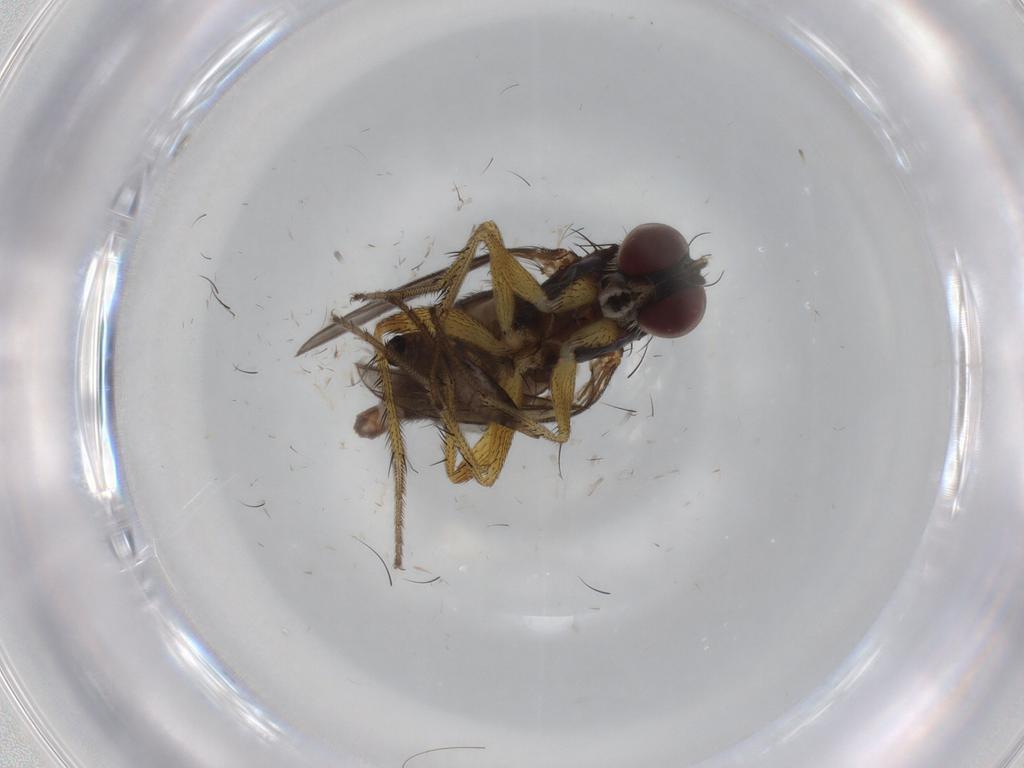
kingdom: Animalia
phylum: Arthropoda
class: Insecta
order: Diptera
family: Dolichopodidae
